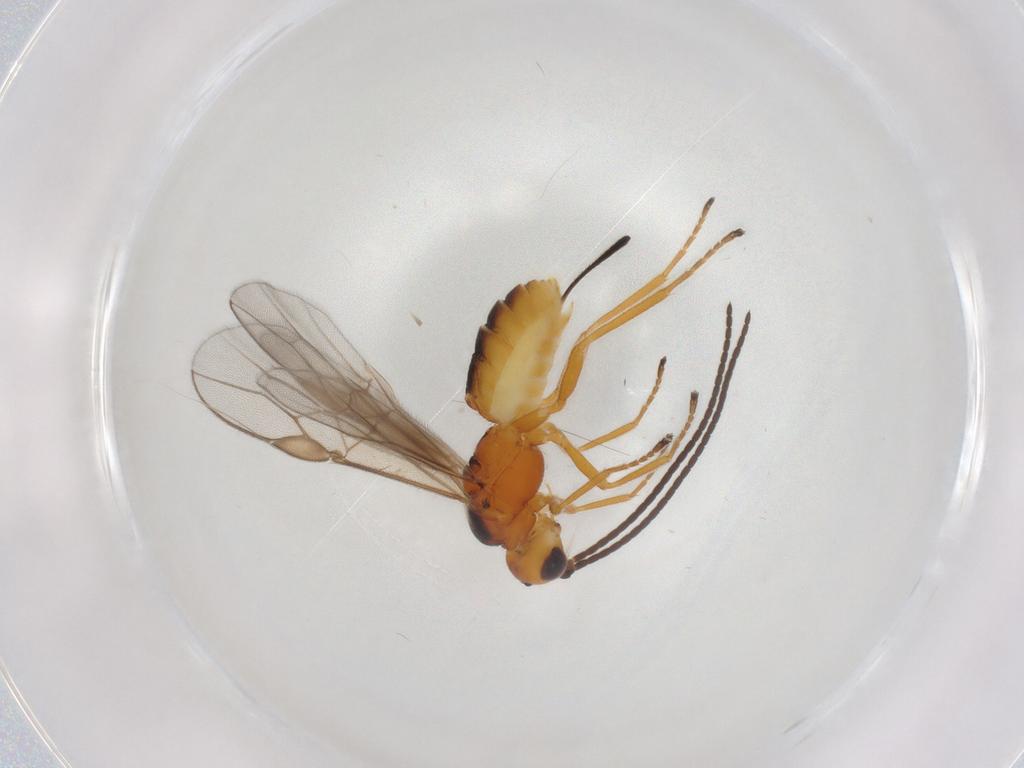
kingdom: Animalia
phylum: Arthropoda
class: Insecta
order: Hymenoptera
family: Braconidae
